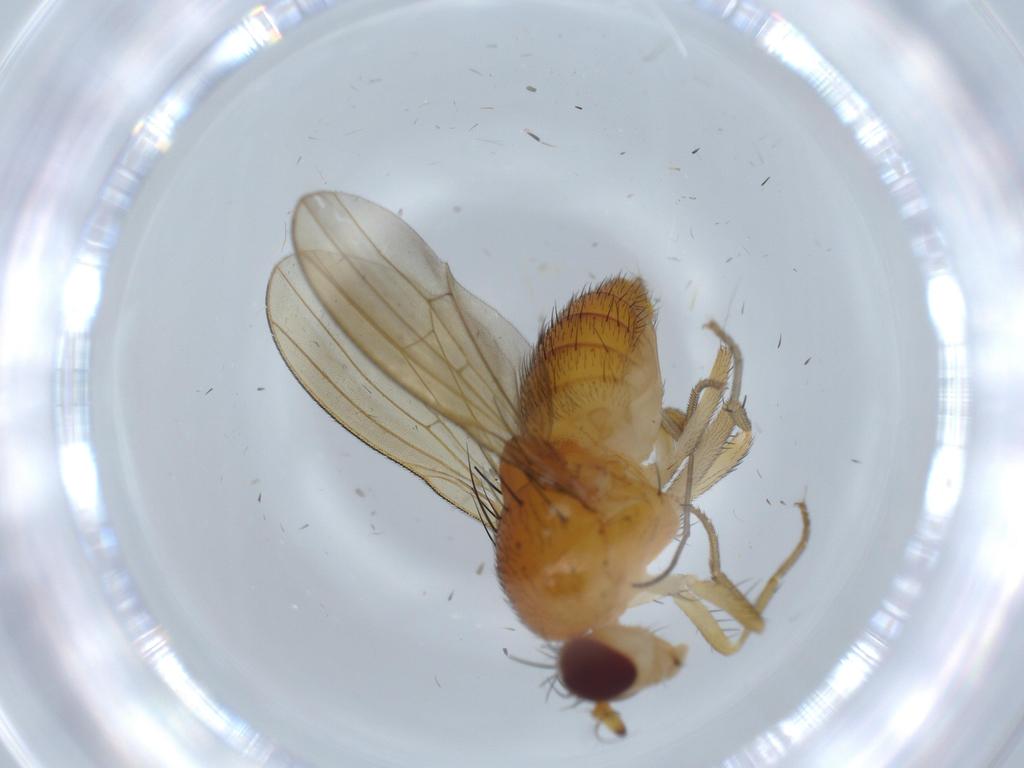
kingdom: Animalia
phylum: Arthropoda
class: Insecta
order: Diptera
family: Lauxaniidae
